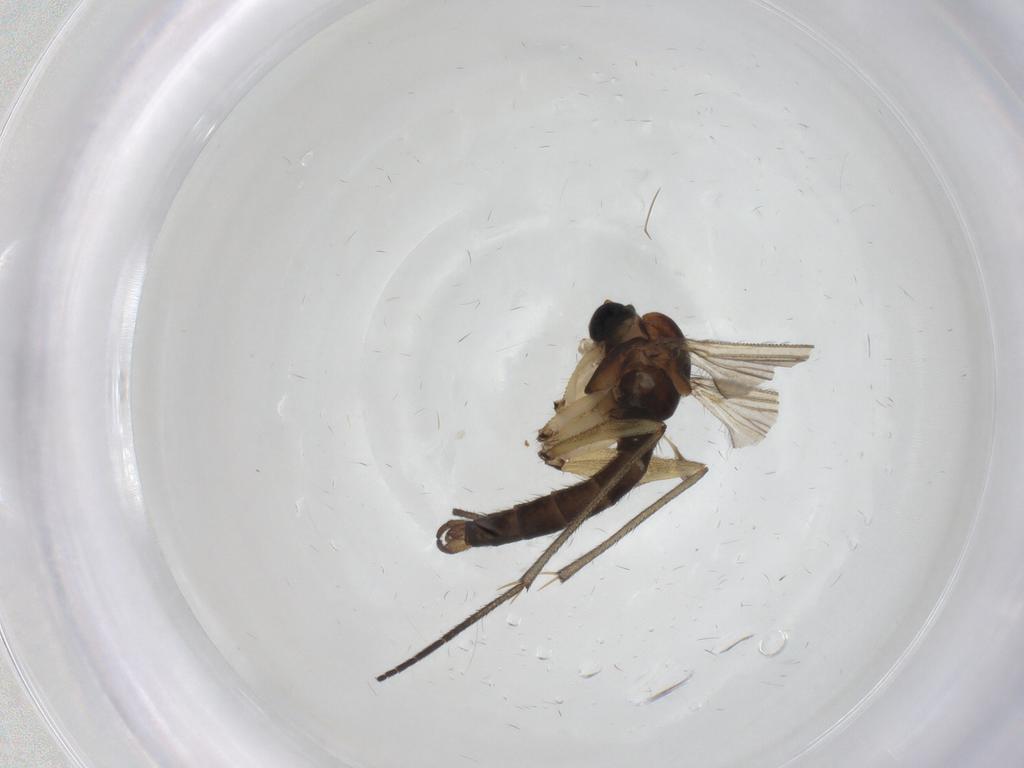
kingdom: Animalia
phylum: Arthropoda
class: Insecta
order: Diptera
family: Sciaridae
